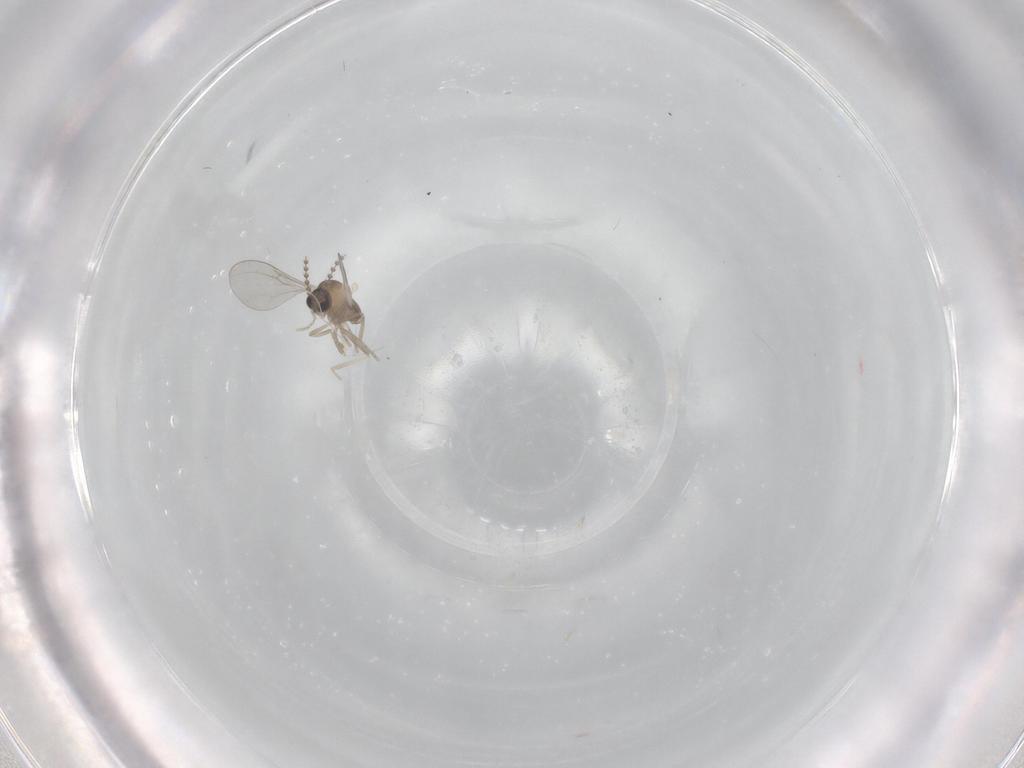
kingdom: Animalia
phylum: Arthropoda
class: Insecta
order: Diptera
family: Cecidomyiidae
